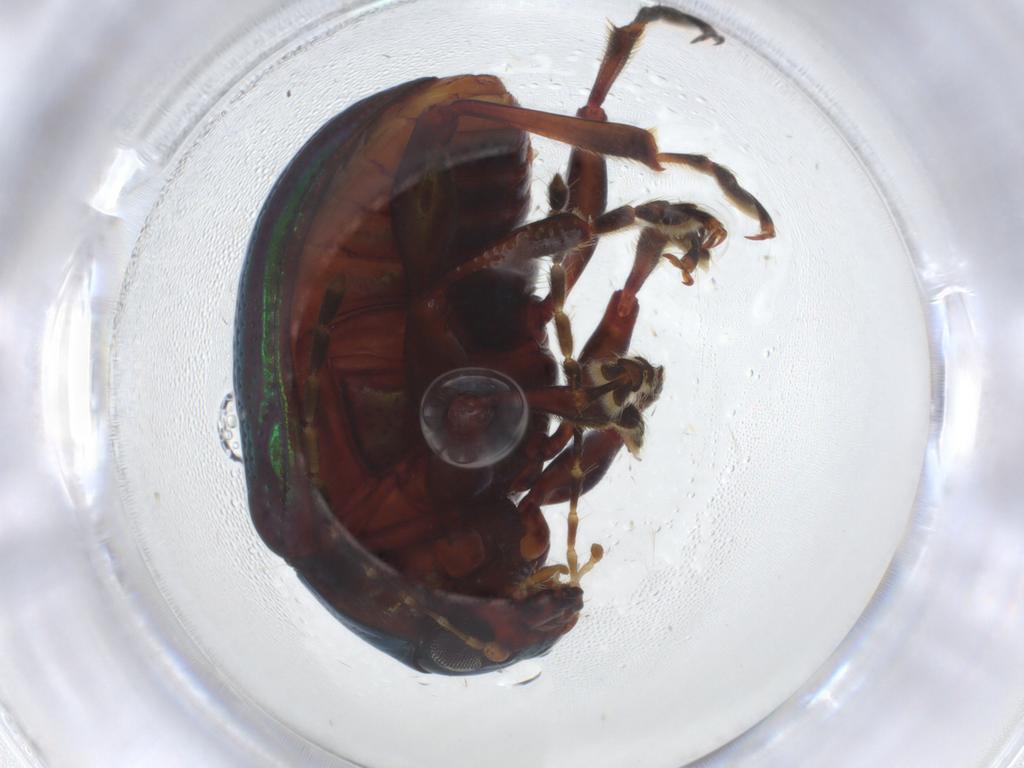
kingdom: Animalia
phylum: Arthropoda
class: Insecta
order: Coleoptera
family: Chrysomelidae
